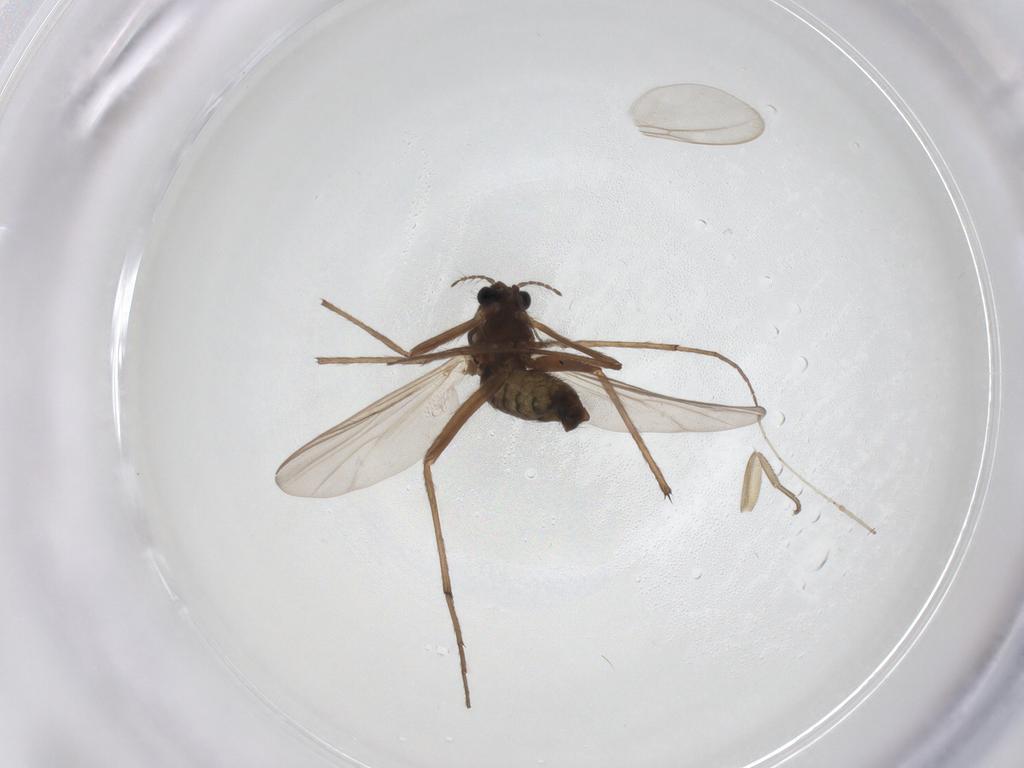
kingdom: Animalia
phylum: Arthropoda
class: Insecta
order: Diptera
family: Chironomidae
